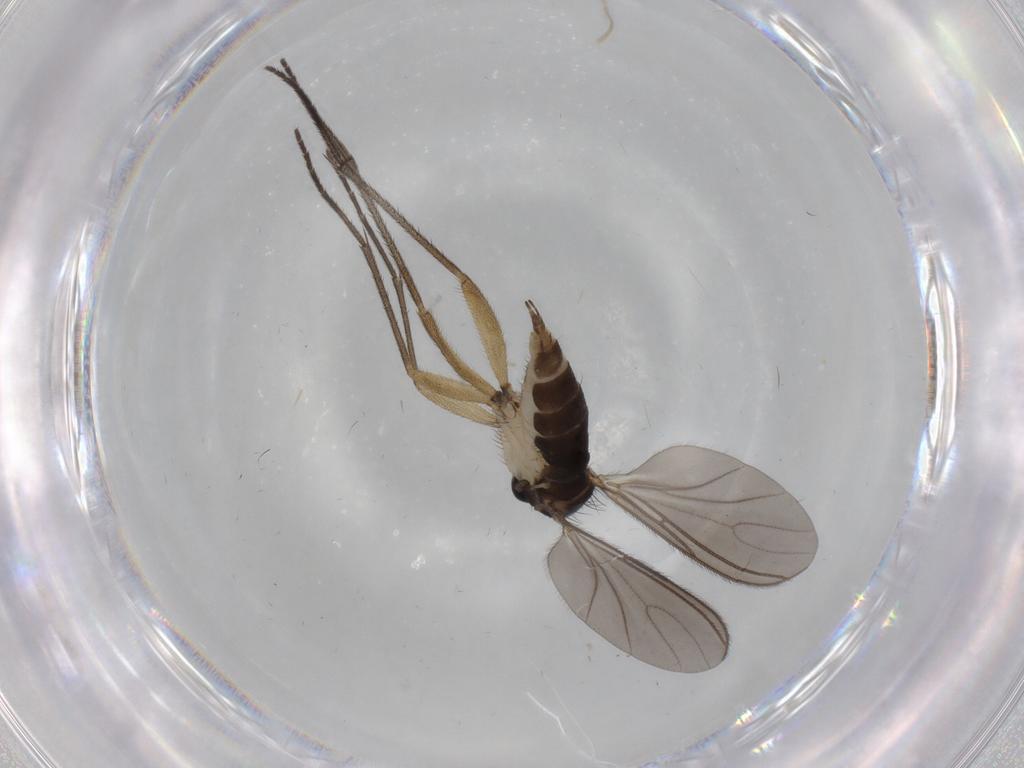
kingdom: Animalia
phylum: Arthropoda
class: Insecta
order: Diptera
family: Sciaridae
